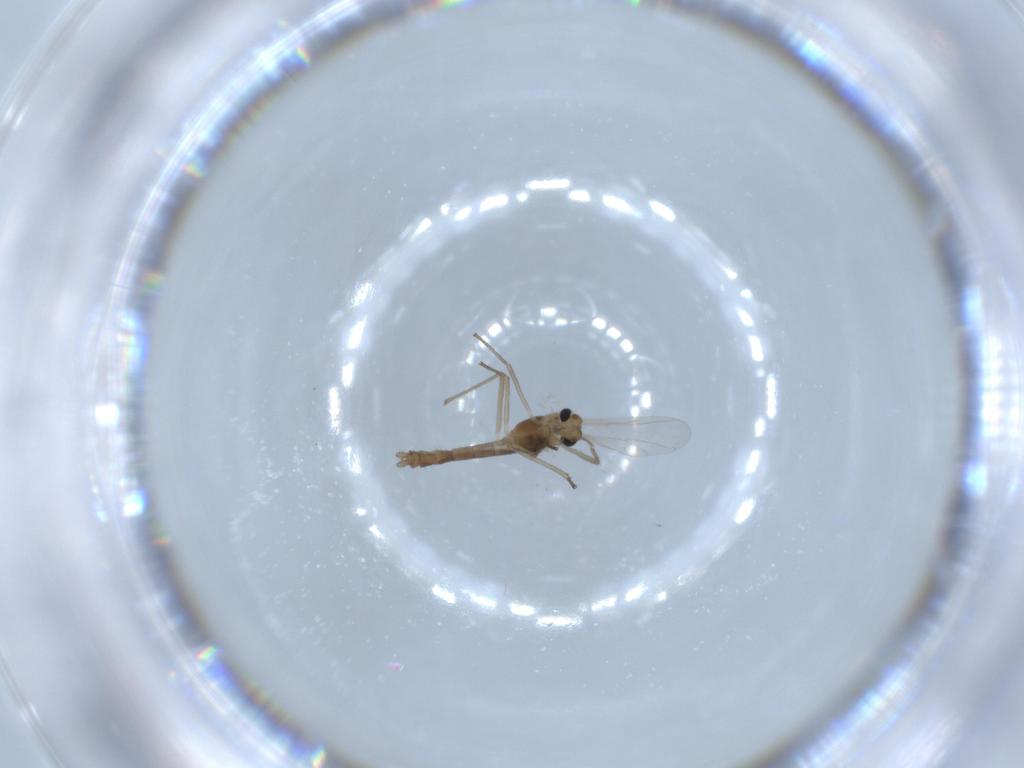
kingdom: Animalia
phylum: Arthropoda
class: Insecta
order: Diptera
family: Chironomidae
